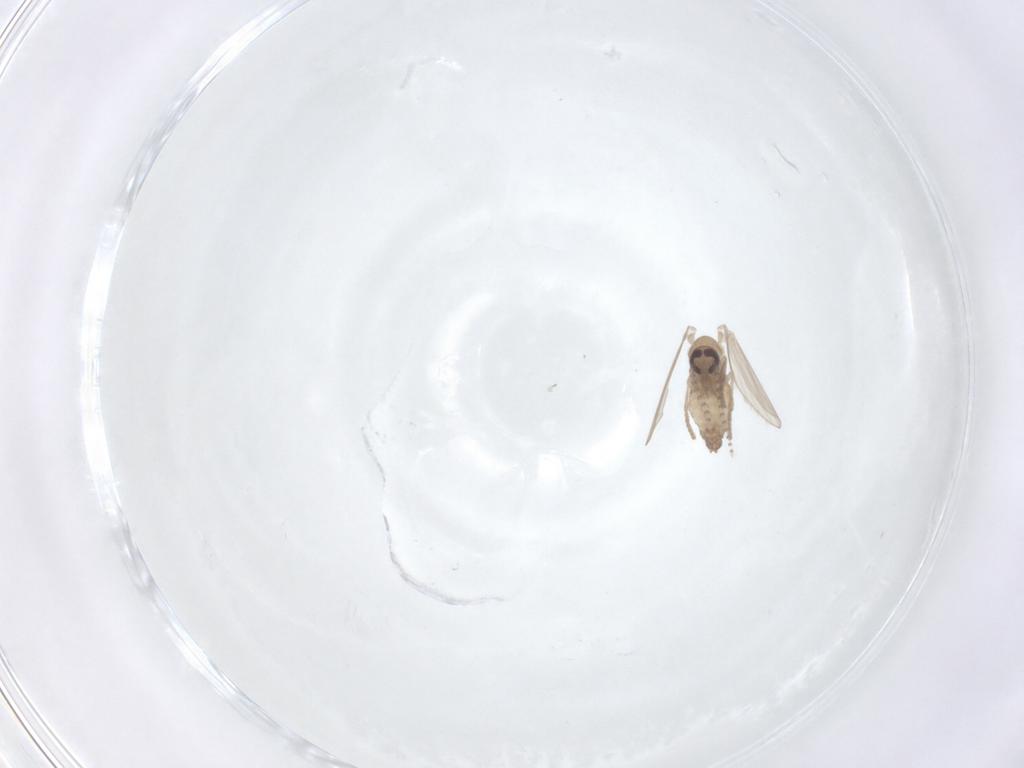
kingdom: Animalia
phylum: Arthropoda
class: Insecta
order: Diptera
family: Psychodidae
